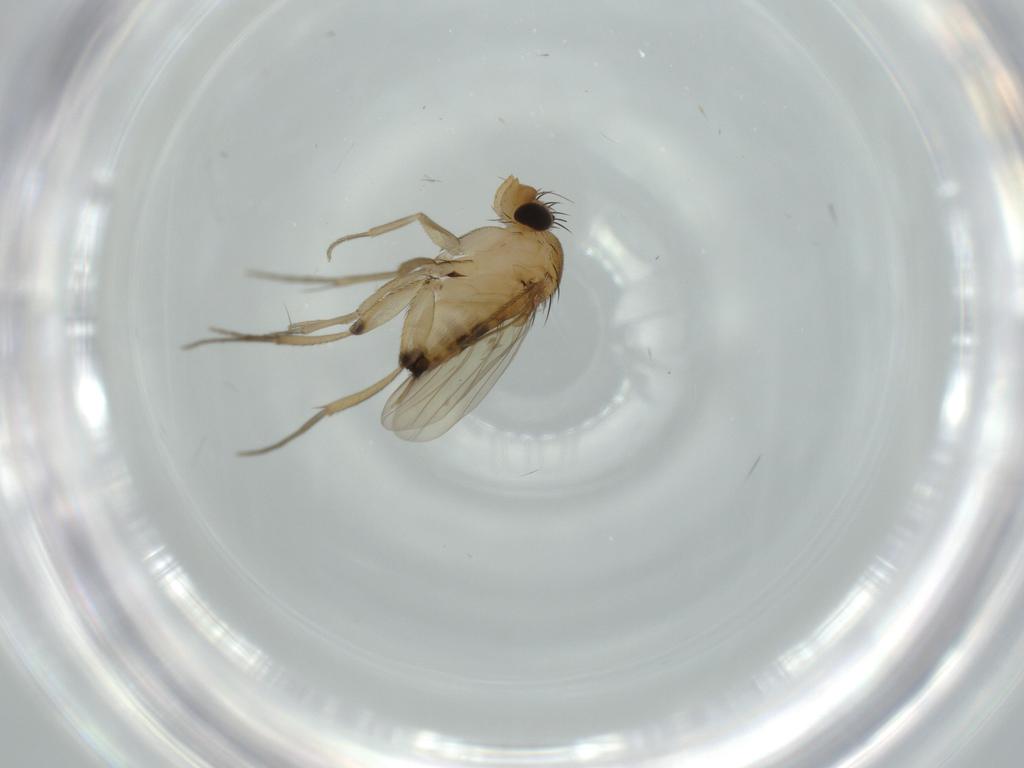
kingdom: Animalia
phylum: Arthropoda
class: Insecta
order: Diptera
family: Phoridae
